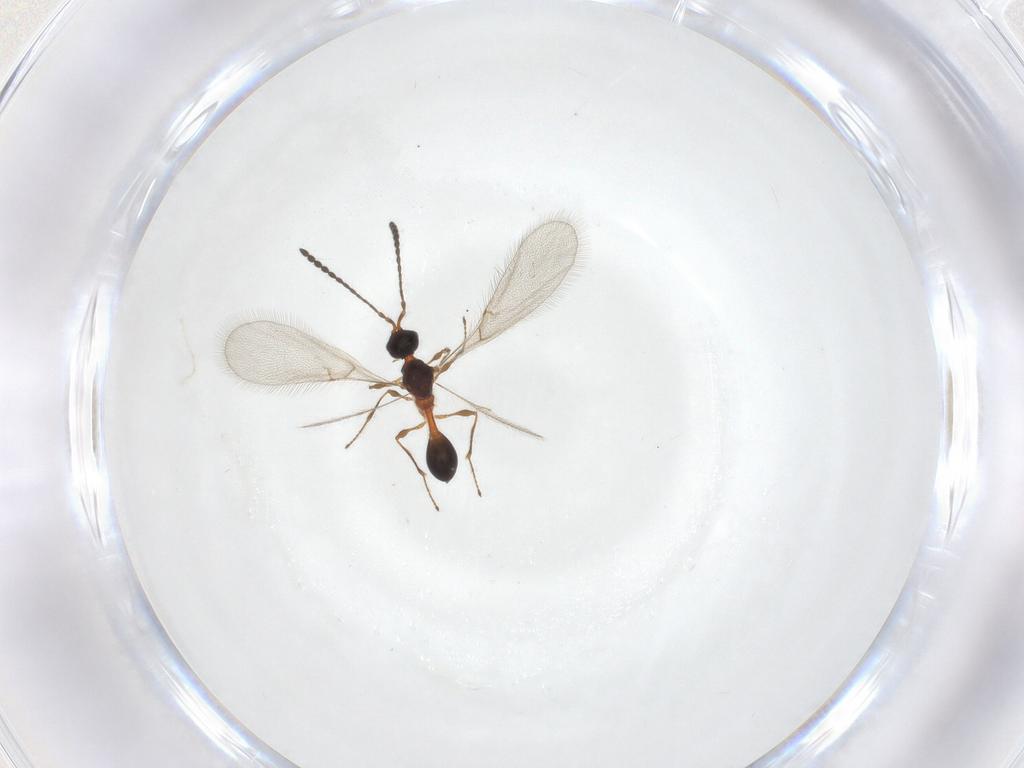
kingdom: Animalia
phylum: Arthropoda
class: Insecta
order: Hymenoptera
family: Diapriidae
